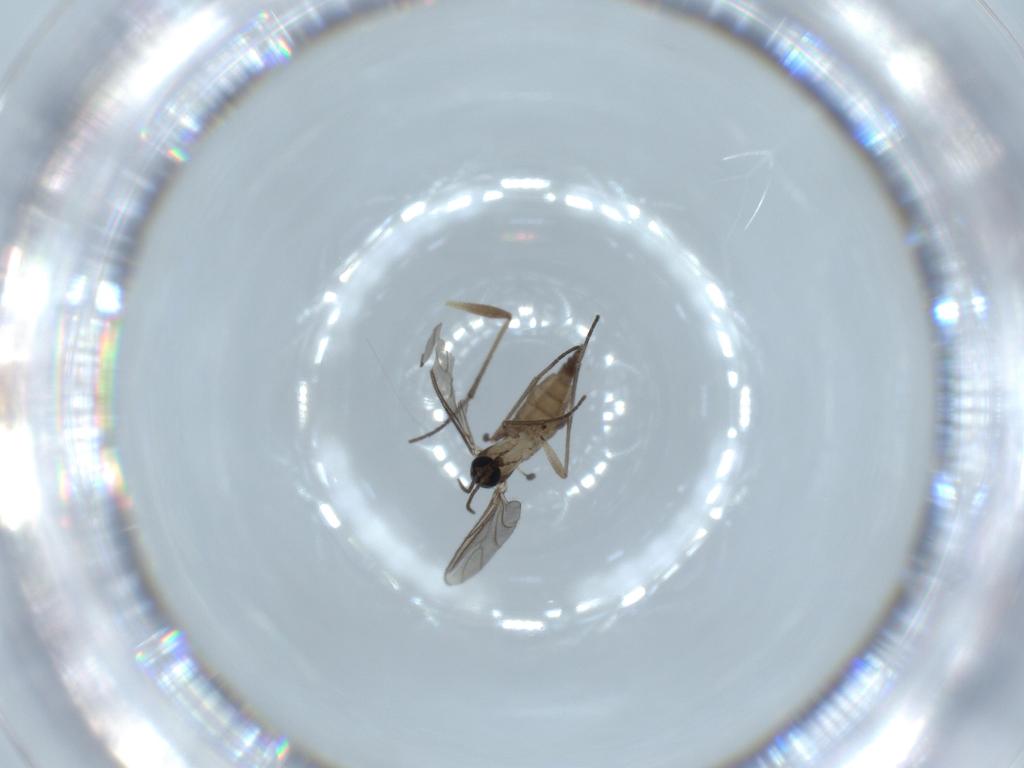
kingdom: Animalia
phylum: Arthropoda
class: Insecta
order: Diptera
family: Sciaridae
